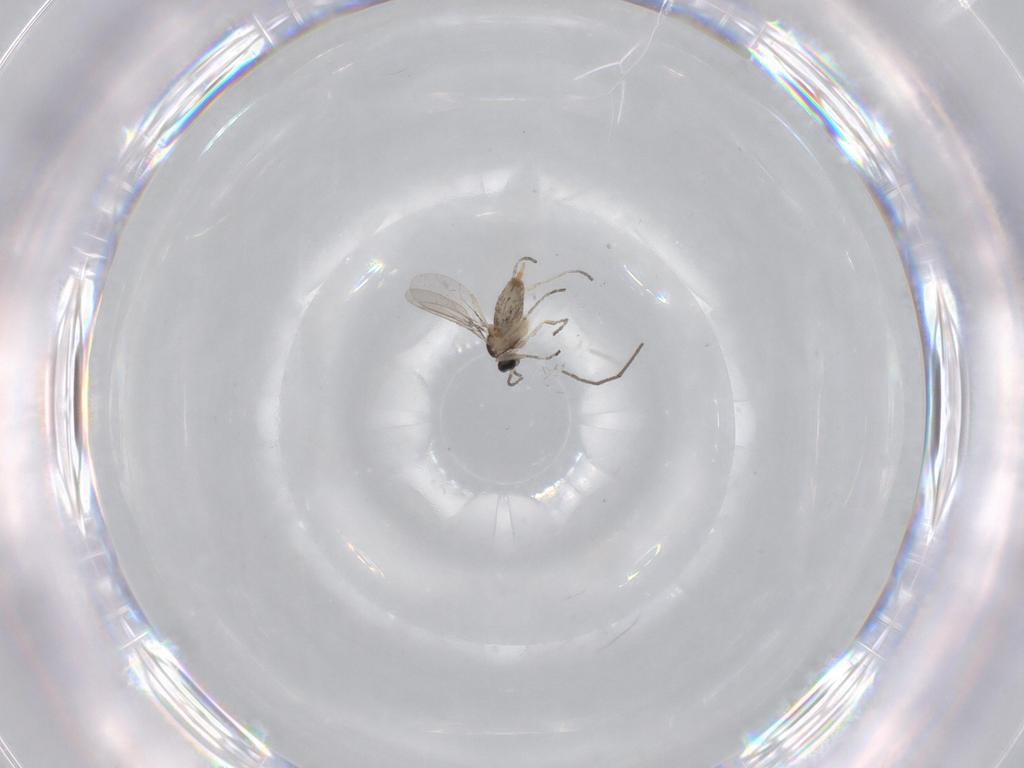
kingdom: Animalia
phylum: Arthropoda
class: Insecta
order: Diptera
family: Cecidomyiidae
